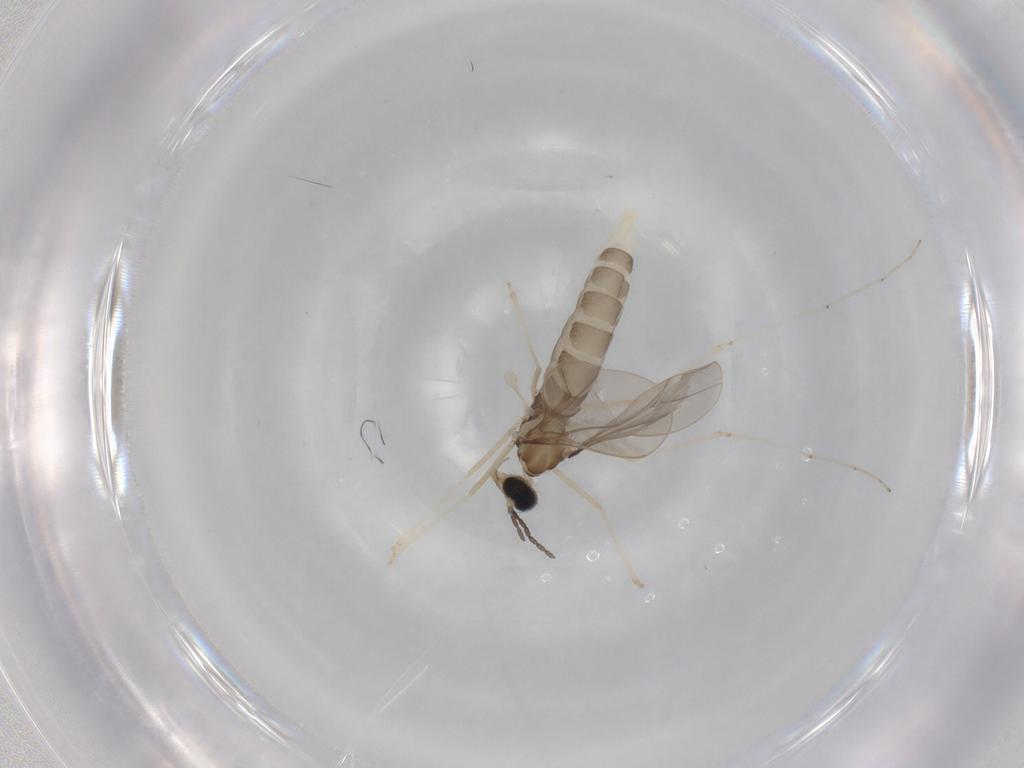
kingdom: Animalia
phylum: Arthropoda
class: Insecta
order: Diptera
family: Cecidomyiidae
